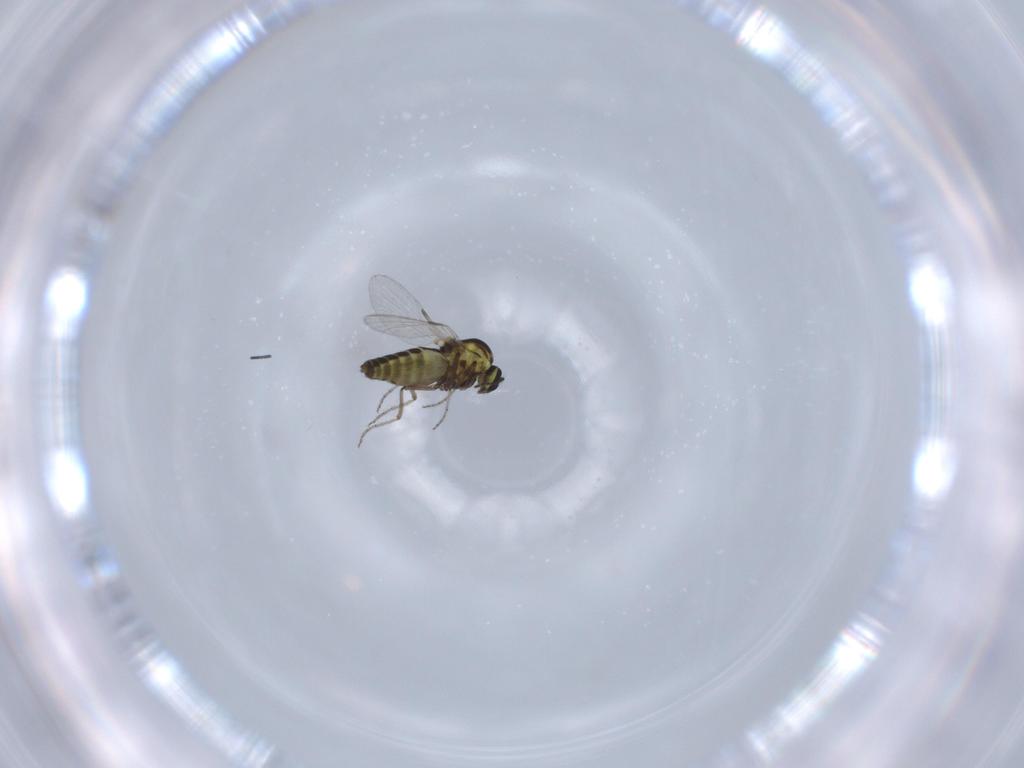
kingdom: Animalia
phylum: Arthropoda
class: Insecta
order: Diptera
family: Ceratopogonidae
